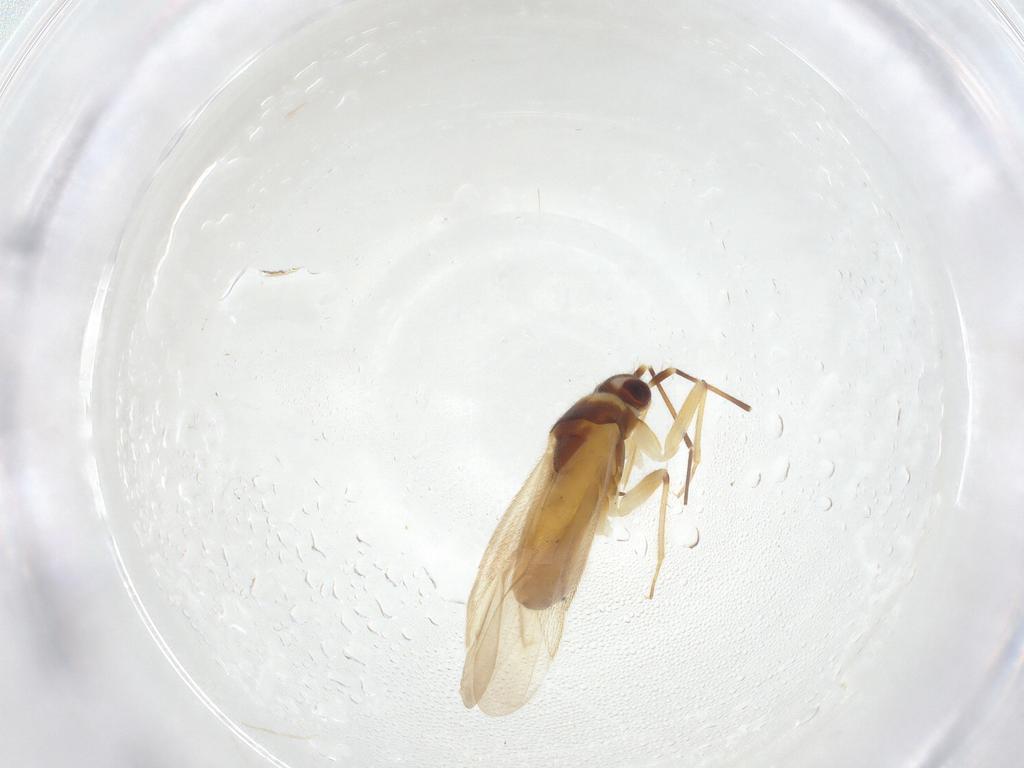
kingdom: Animalia
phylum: Arthropoda
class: Insecta
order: Hemiptera
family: Miridae
